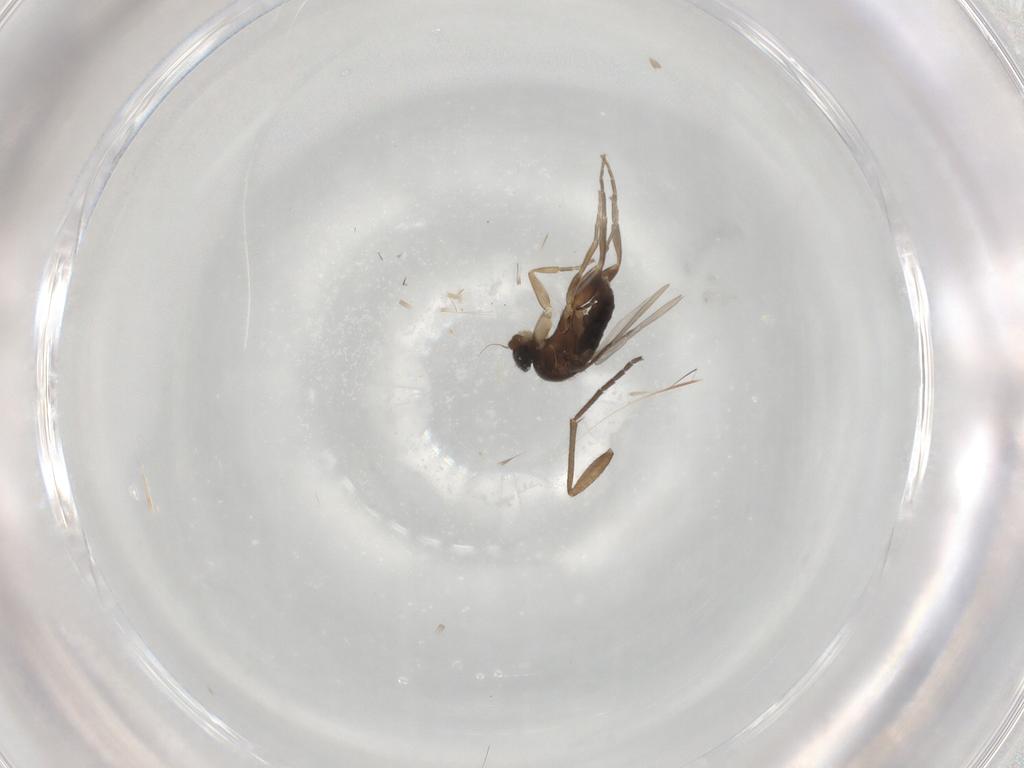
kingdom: Animalia
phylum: Arthropoda
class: Insecta
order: Diptera
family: Phoridae
